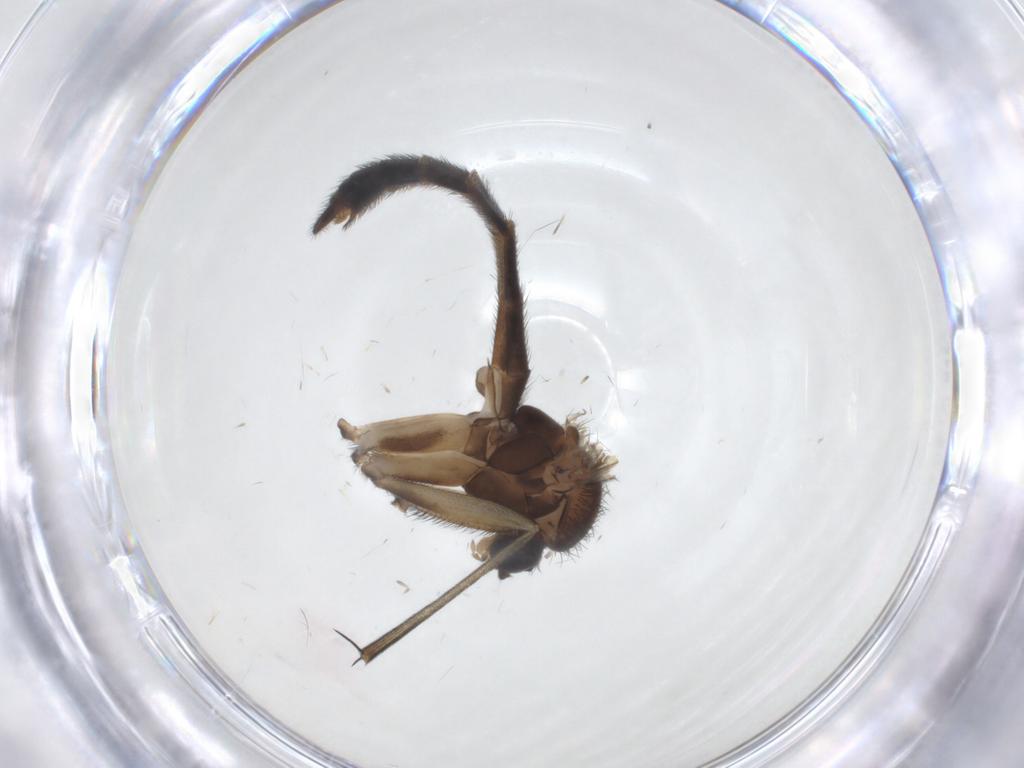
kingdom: Animalia
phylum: Arthropoda
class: Insecta
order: Diptera
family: Keroplatidae
